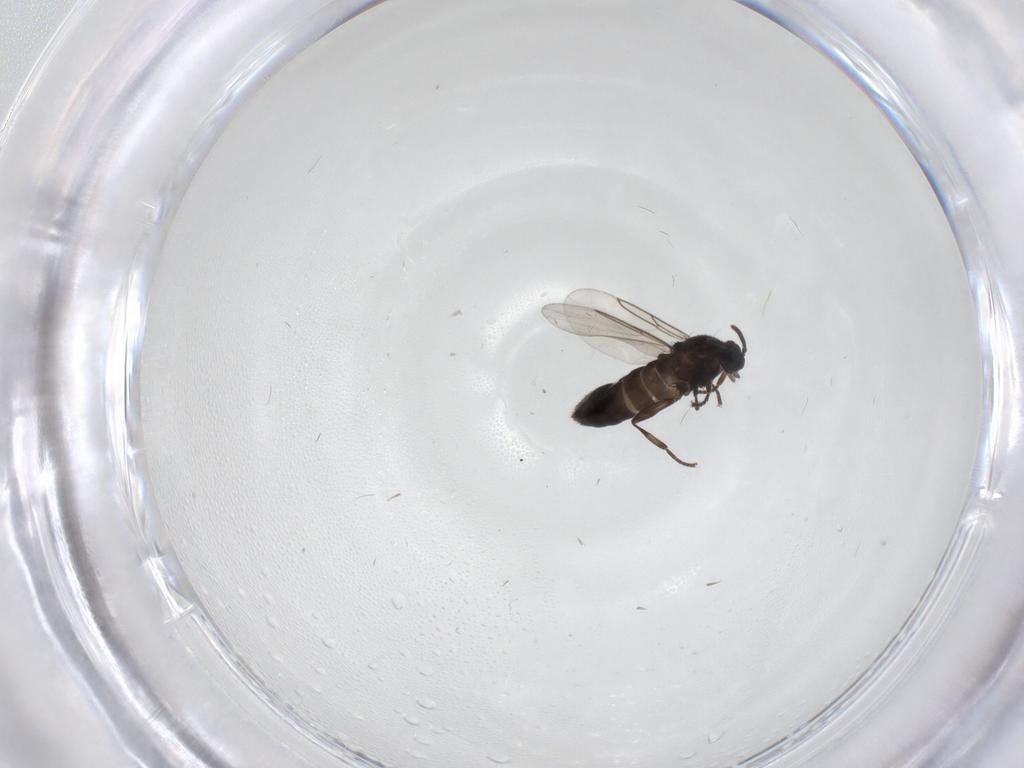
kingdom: Animalia
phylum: Arthropoda
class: Insecta
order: Diptera
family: Scatopsidae
